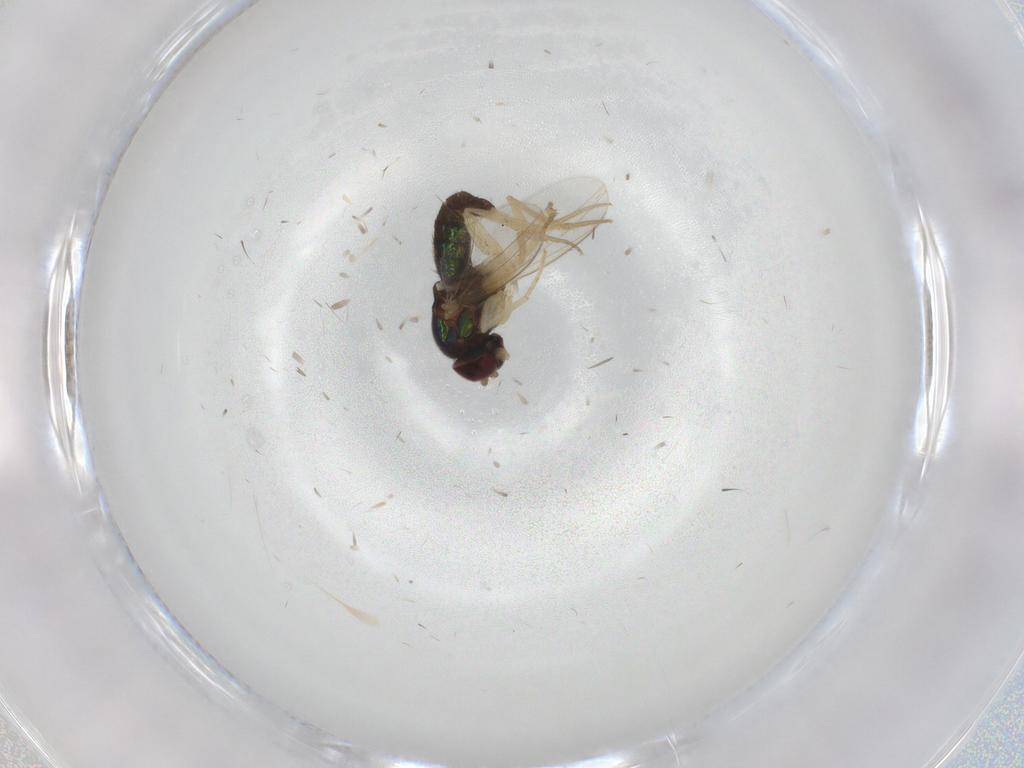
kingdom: Animalia
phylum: Arthropoda
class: Insecta
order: Diptera
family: Dolichopodidae
